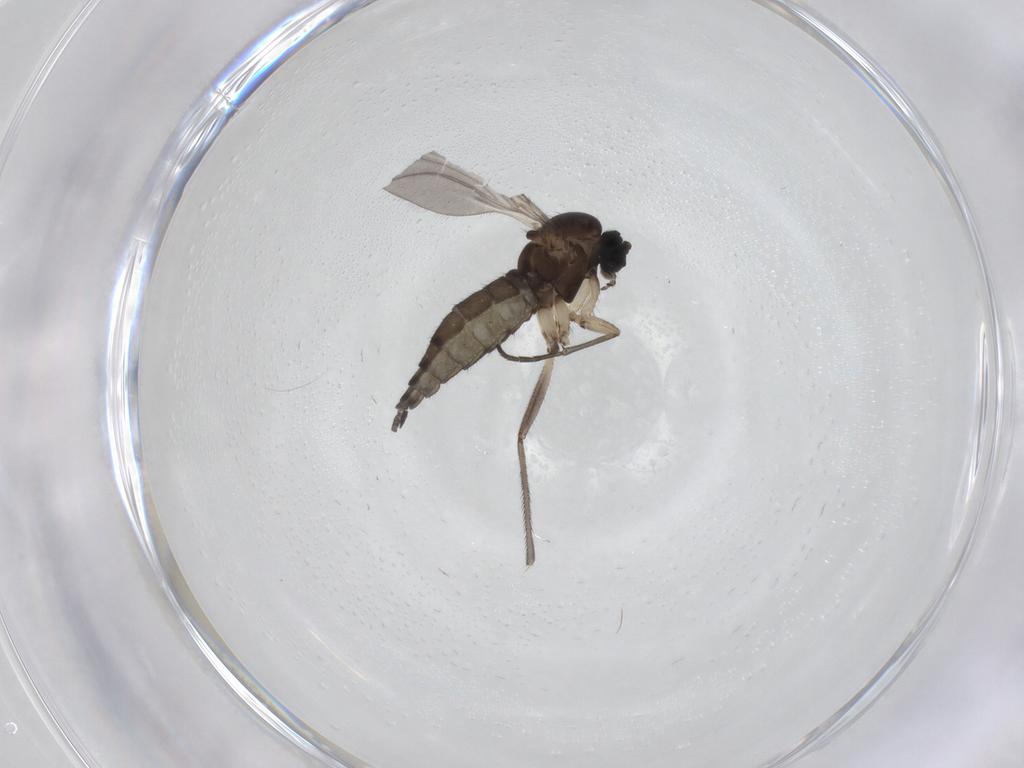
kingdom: Animalia
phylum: Arthropoda
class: Insecta
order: Diptera
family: Sciaridae
